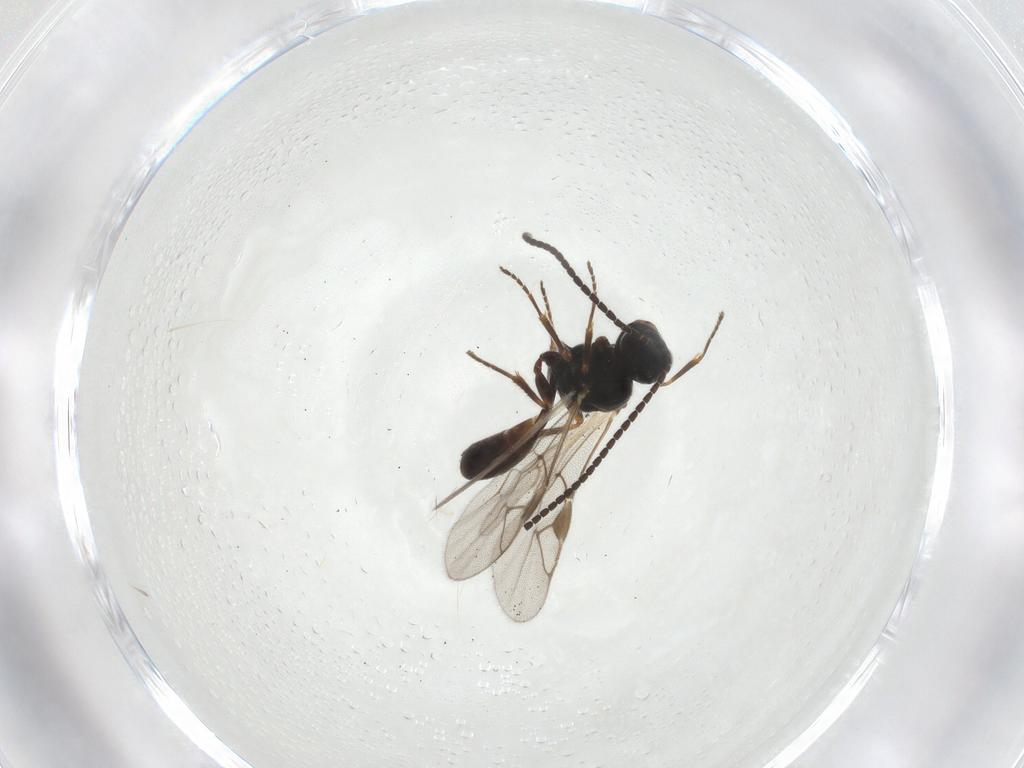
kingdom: Animalia
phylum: Arthropoda
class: Insecta
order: Hymenoptera
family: Ichneumonidae
